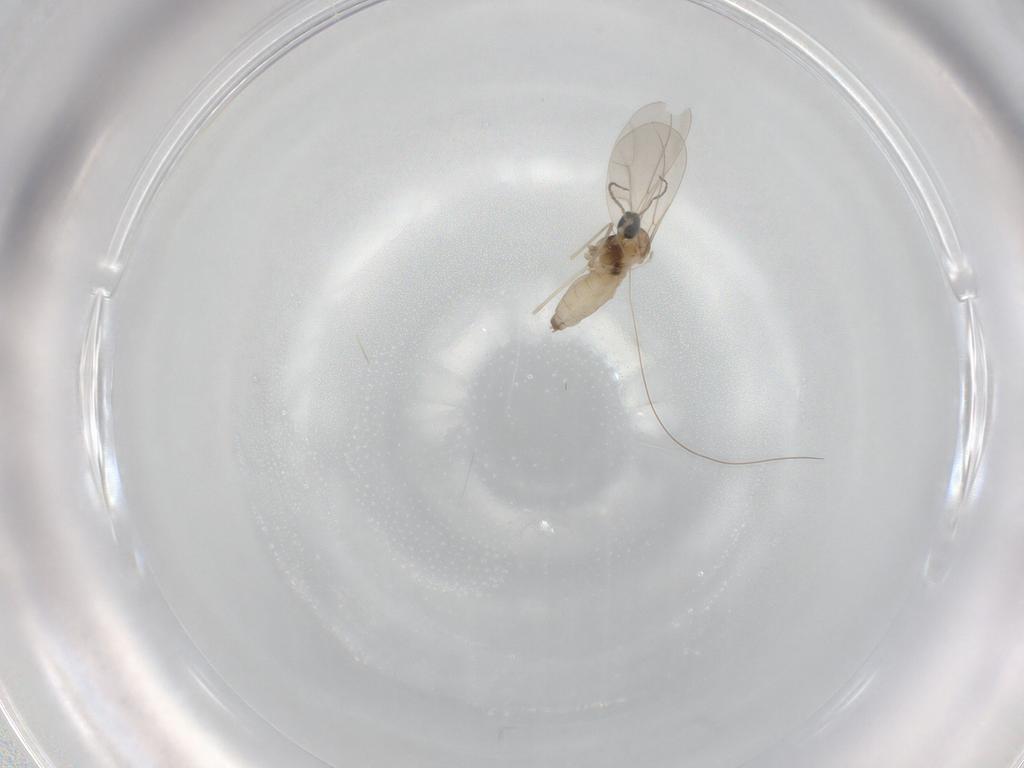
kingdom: Animalia
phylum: Arthropoda
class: Insecta
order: Diptera
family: Cecidomyiidae
